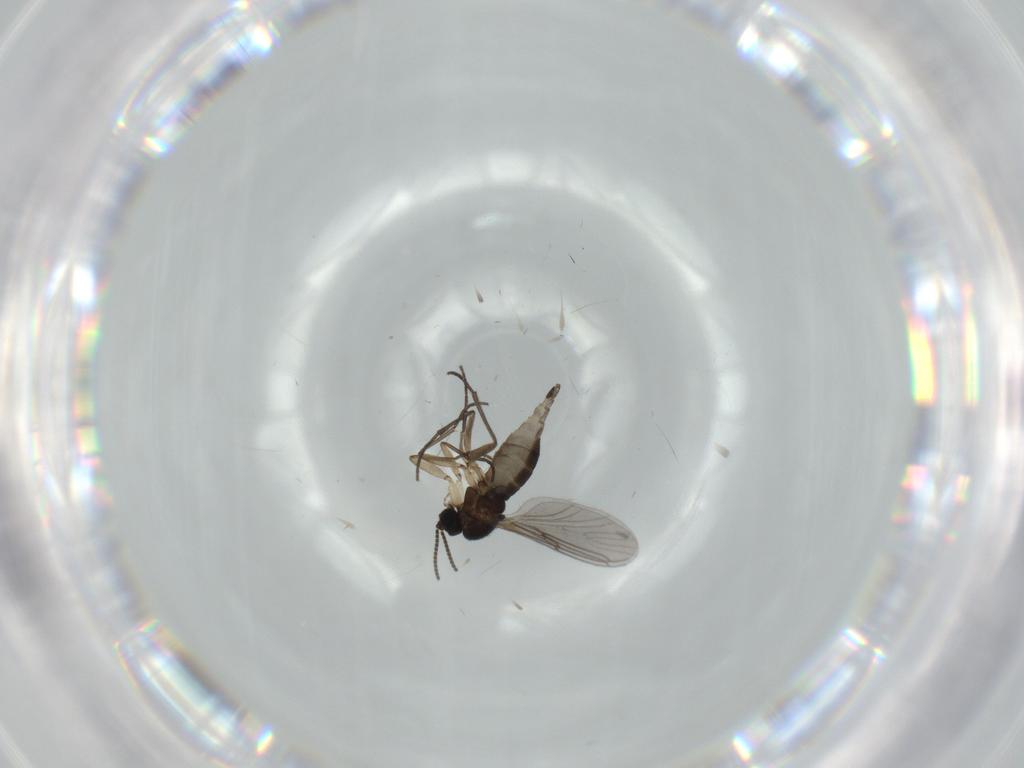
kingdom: Animalia
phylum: Arthropoda
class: Insecta
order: Diptera
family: Sciaridae
